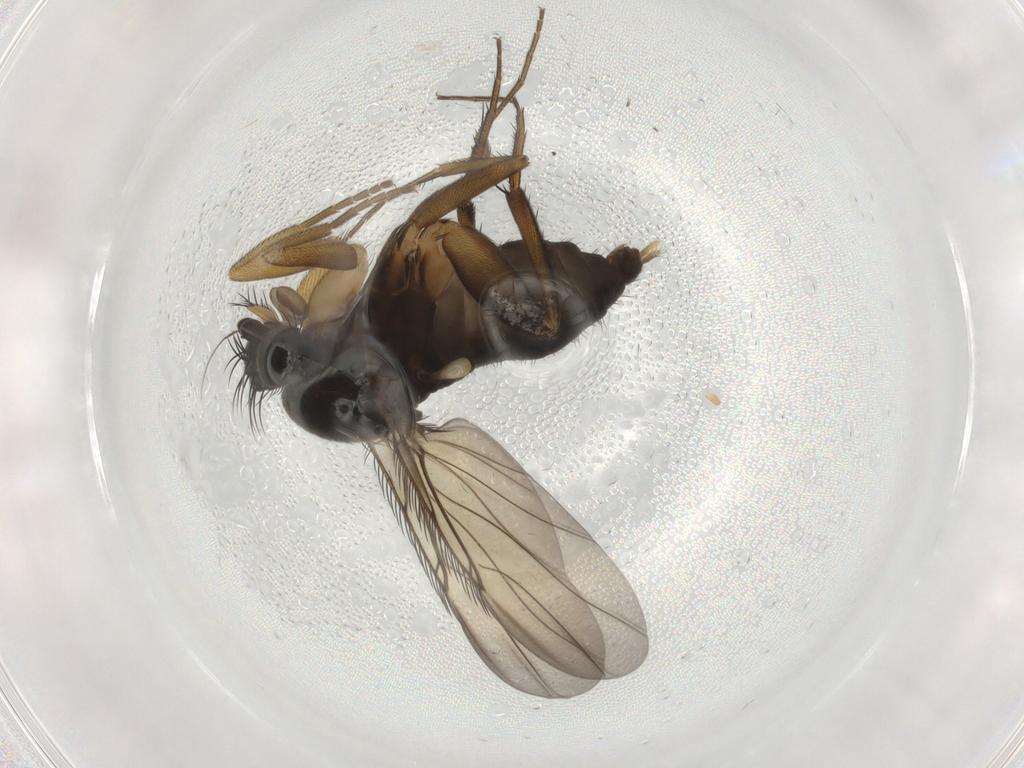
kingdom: Animalia
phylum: Arthropoda
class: Insecta
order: Diptera
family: Phoridae
